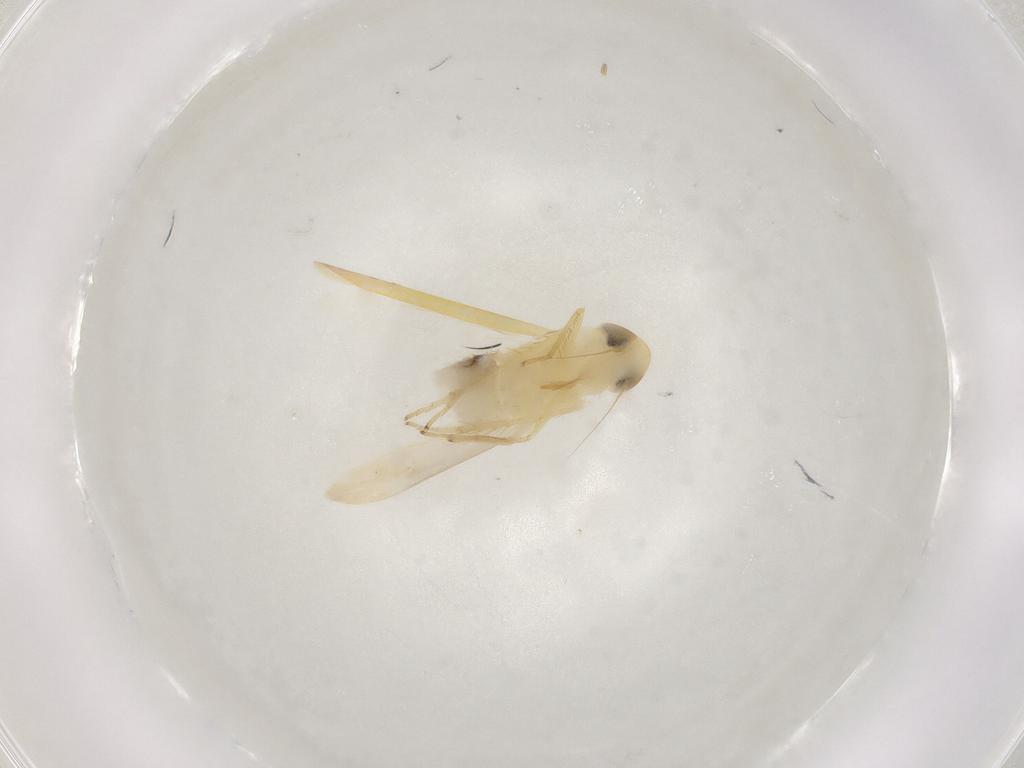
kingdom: Animalia
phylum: Arthropoda
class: Insecta
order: Hemiptera
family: Cicadellidae
